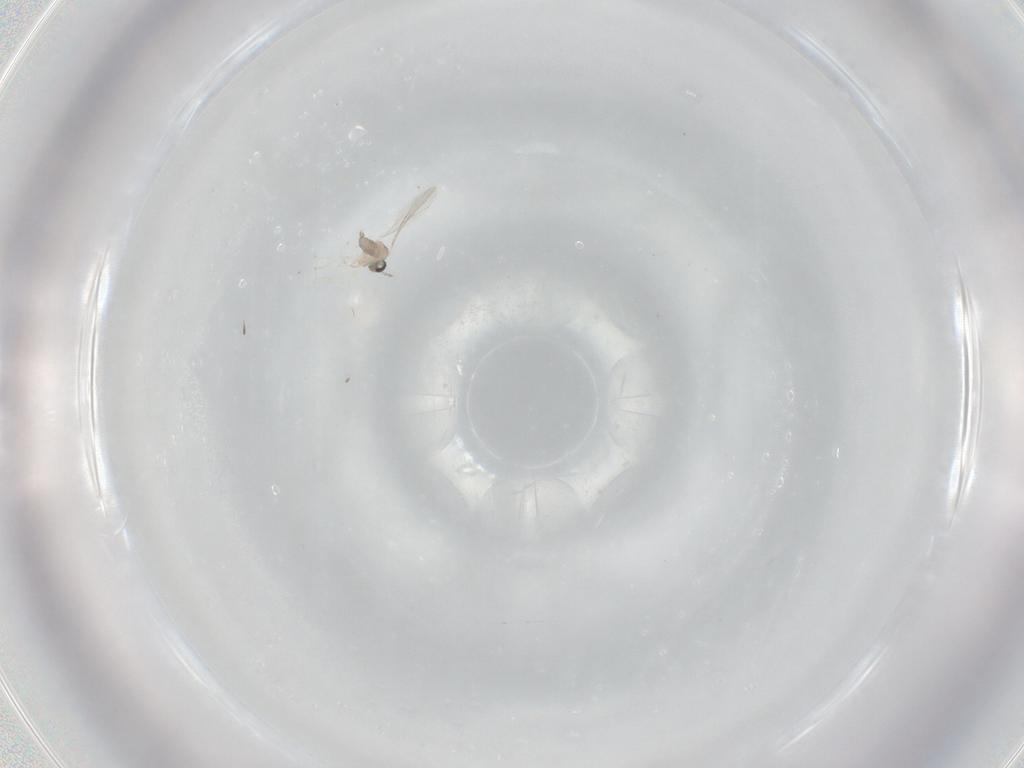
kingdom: Animalia
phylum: Arthropoda
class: Insecta
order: Diptera
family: Cecidomyiidae
